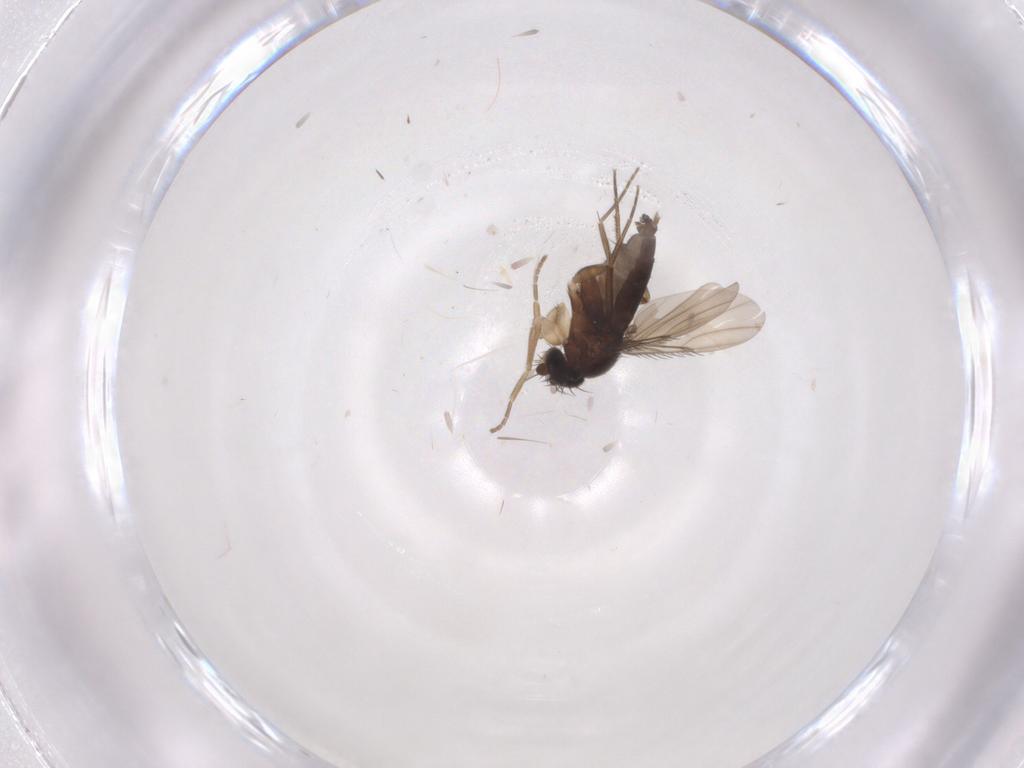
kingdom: Animalia
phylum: Arthropoda
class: Insecta
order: Diptera
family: Phoridae
